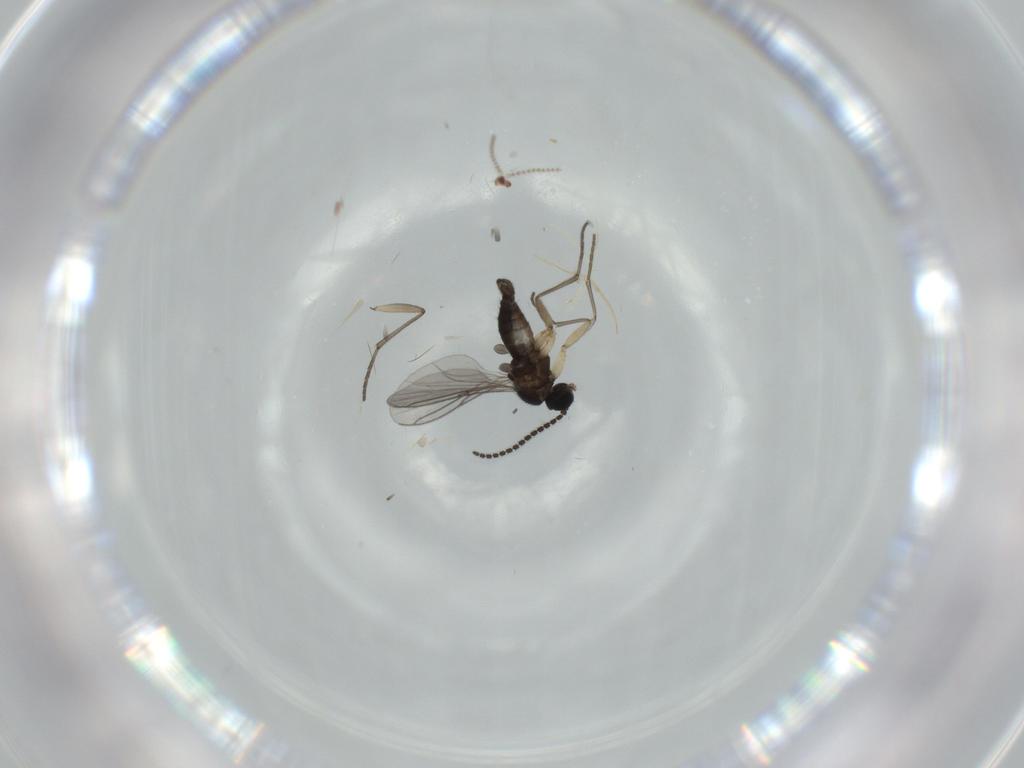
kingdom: Animalia
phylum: Arthropoda
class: Insecta
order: Diptera
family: Sciaridae
